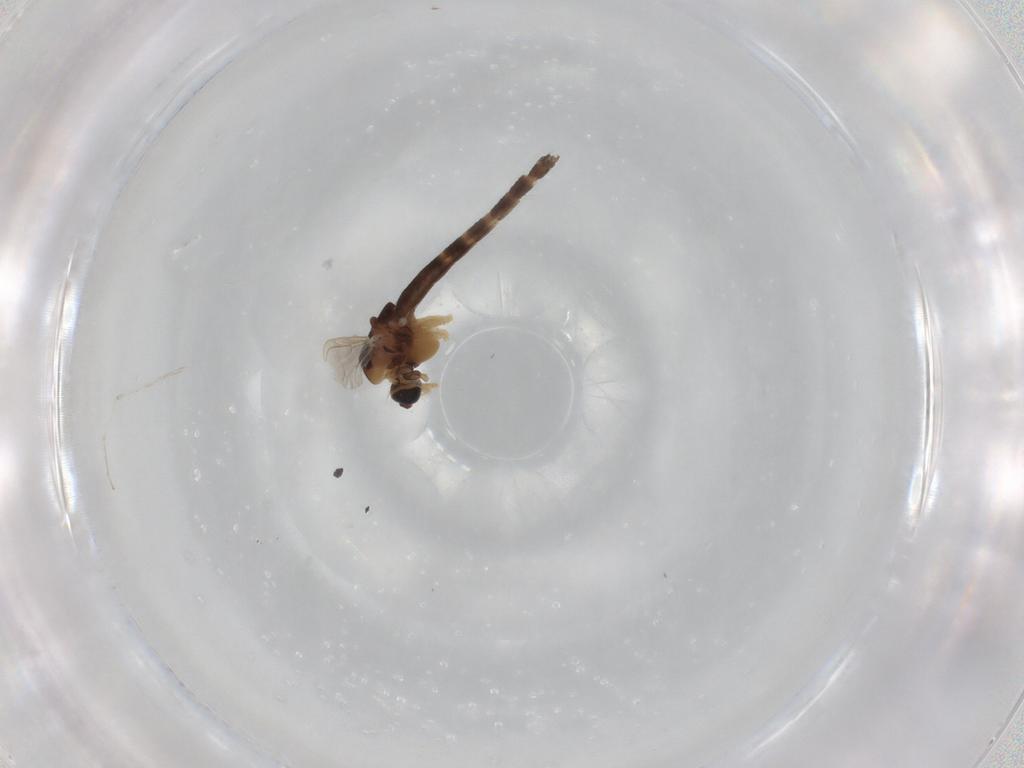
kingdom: Animalia
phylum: Arthropoda
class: Insecta
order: Diptera
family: Chironomidae
